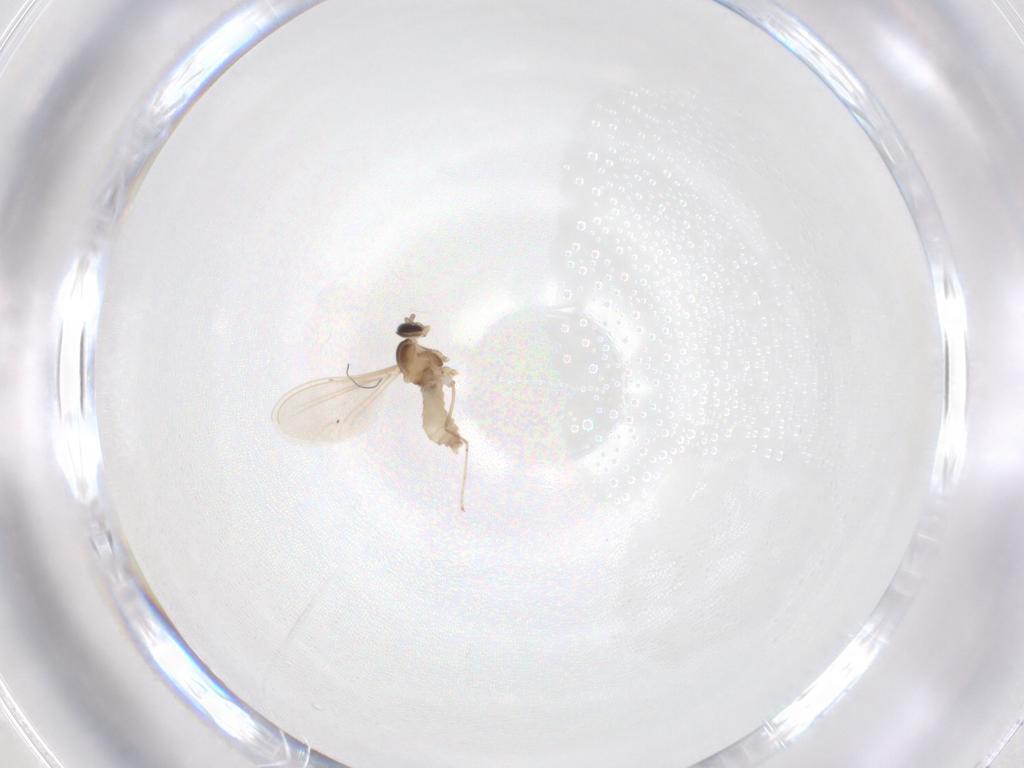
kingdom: Animalia
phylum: Arthropoda
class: Insecta
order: Diptera
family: Cecidomyiidae
